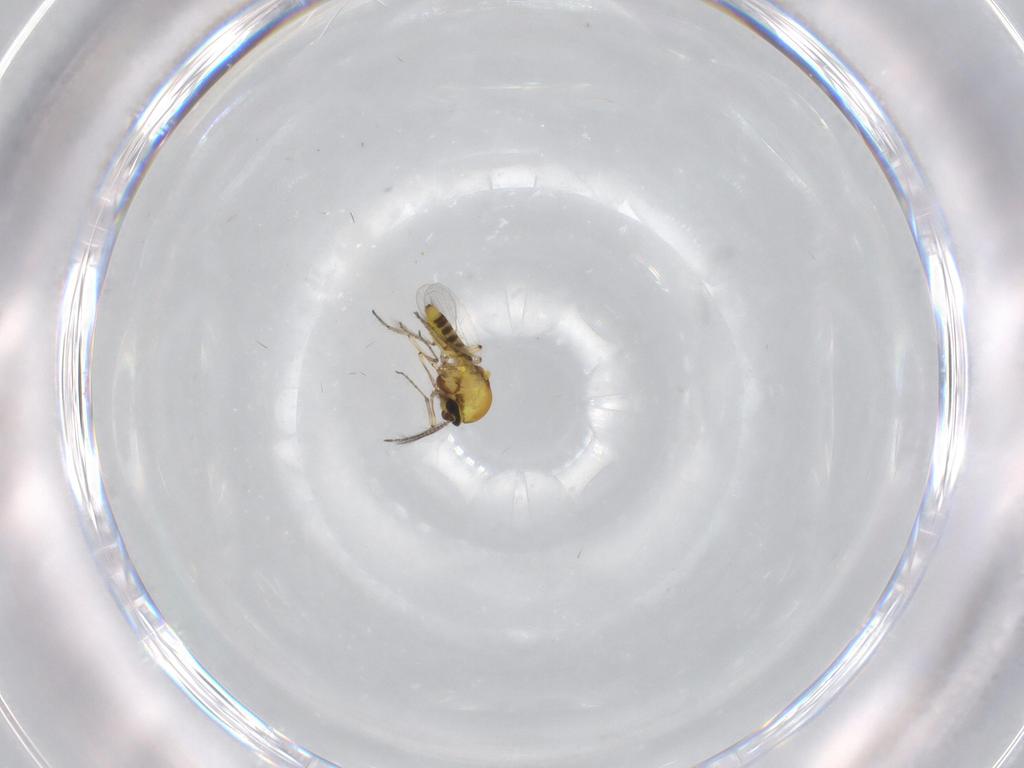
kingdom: Animalia
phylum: Arthropoda
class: Insecta
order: Diptera
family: Ceratopogonidae
